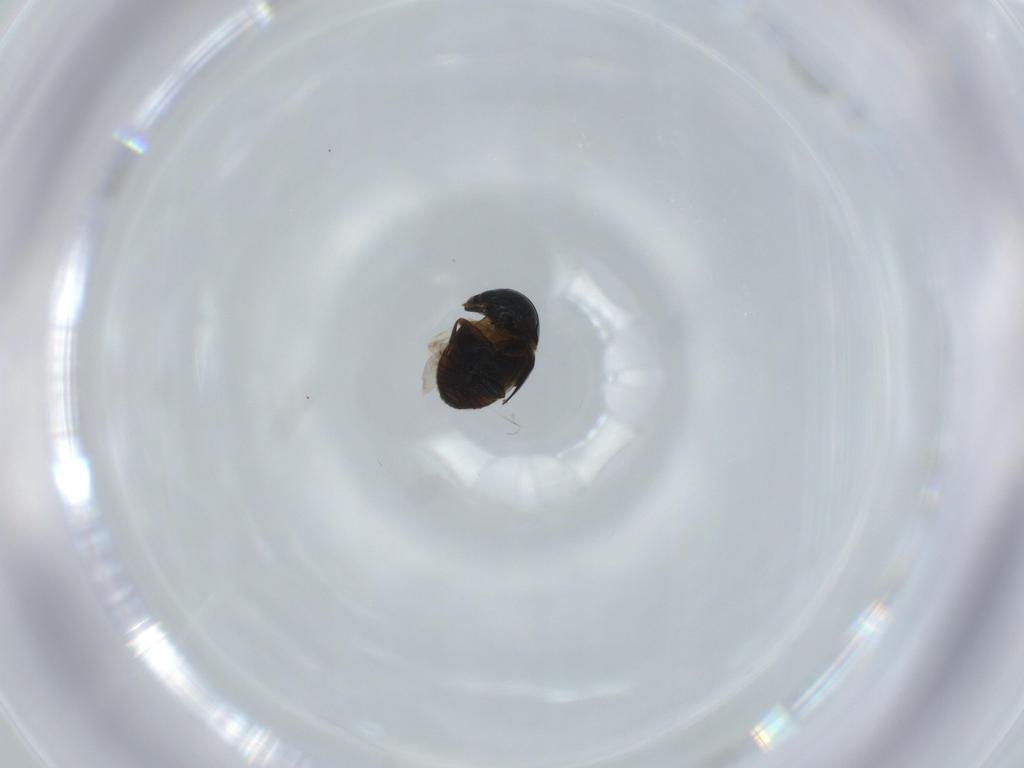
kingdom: Animalia
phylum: Arthropoda
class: Insecta
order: Coleoptera
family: Cybocephalidae
